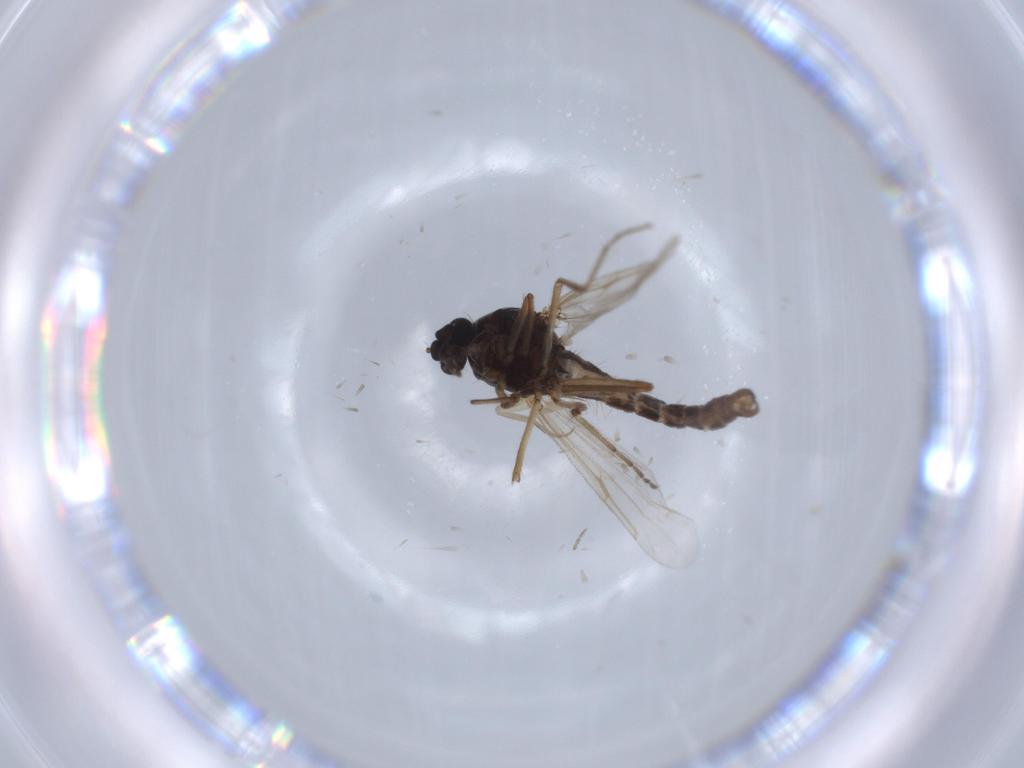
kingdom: Animalia
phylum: Arthropoda
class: Insecta
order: Diptera
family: Ceratopogonidae
